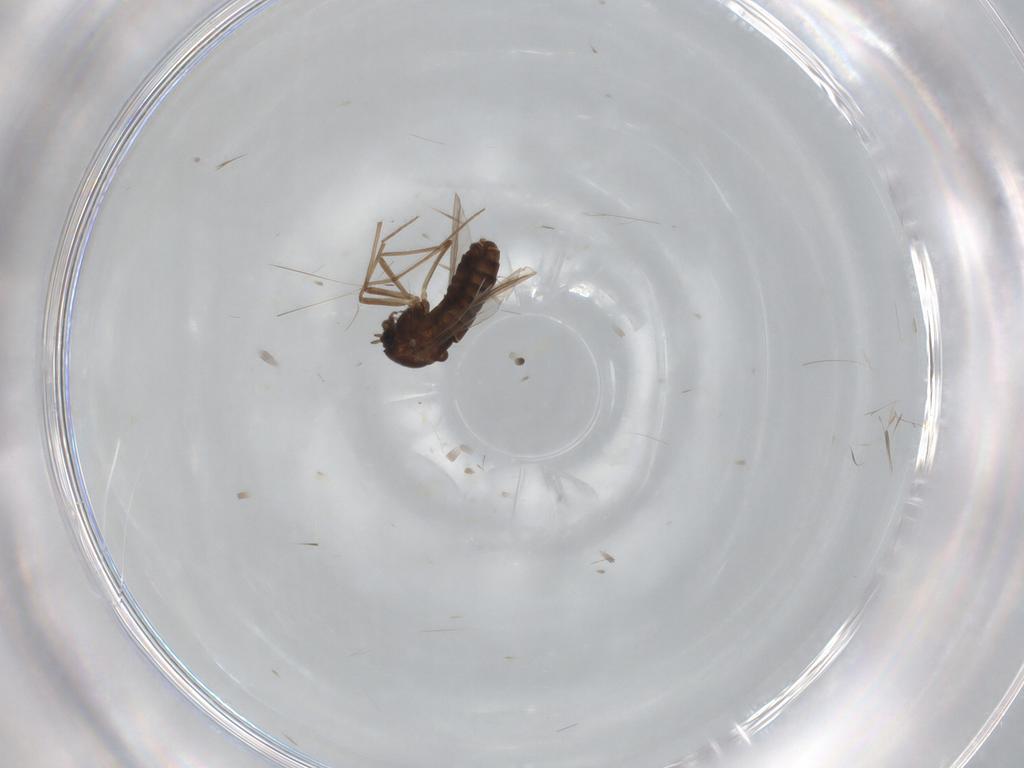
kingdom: Animalia
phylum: Arthropoda
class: Insecta
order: Diptera
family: Chironomidae
